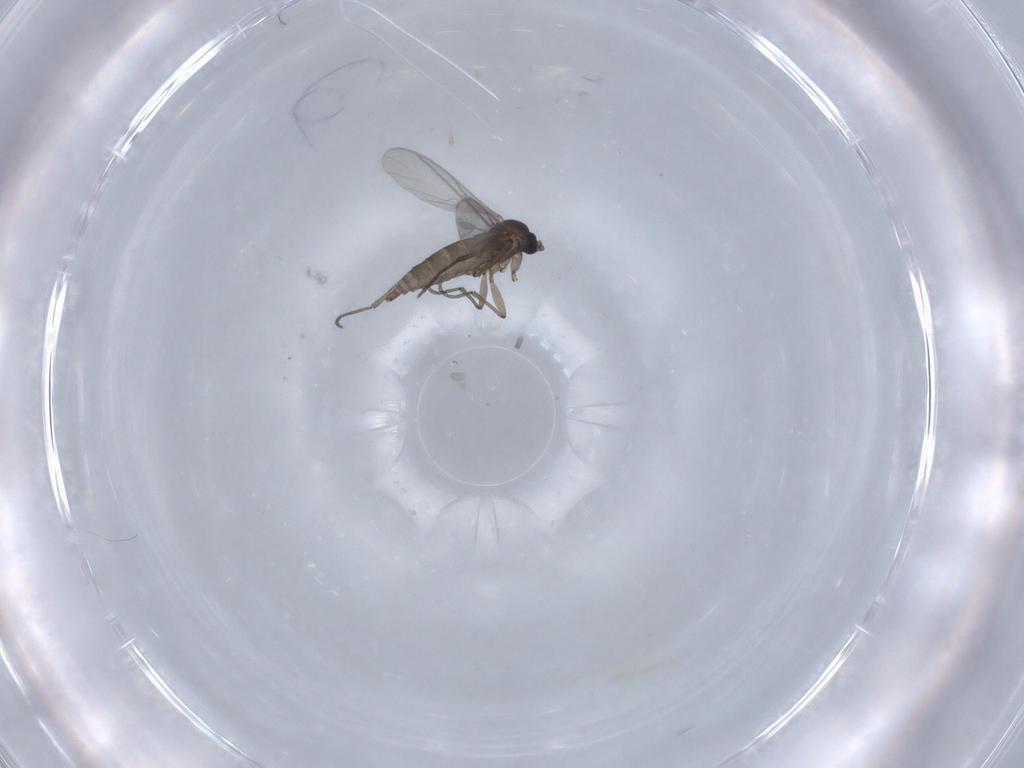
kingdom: Animalia
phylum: Arthropoda
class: Insecta
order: Diptera
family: Sciaridae
